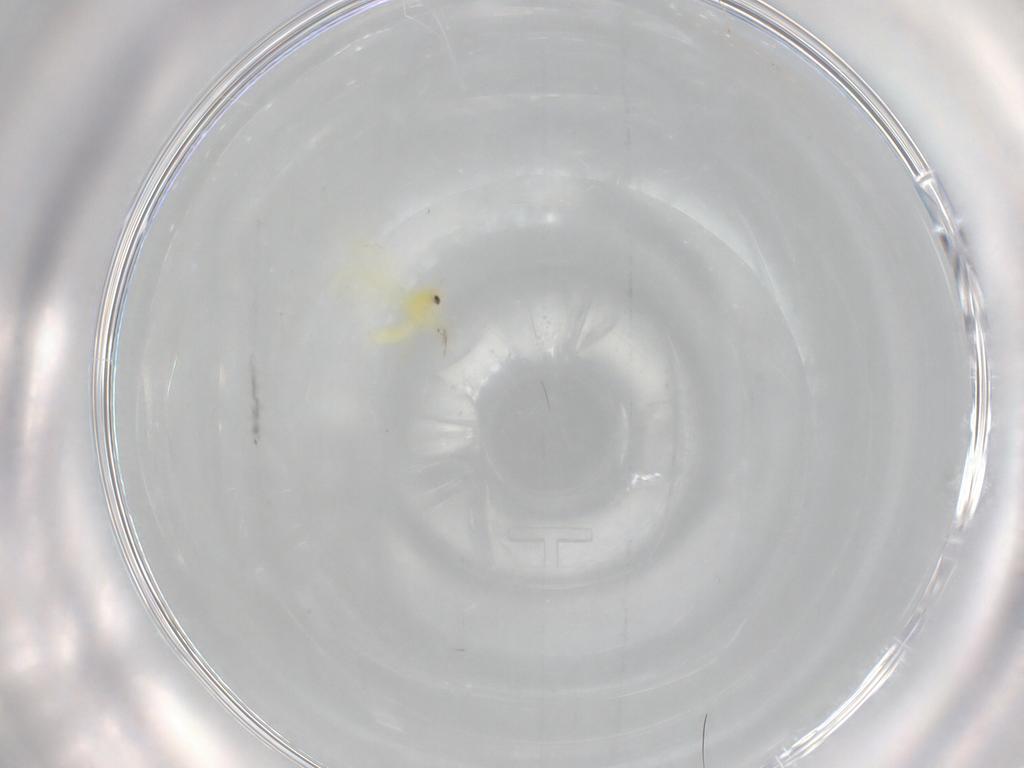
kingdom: Animalia
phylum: Arthropoda
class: Insecta
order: Hemiptera
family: Aleyrodidae
